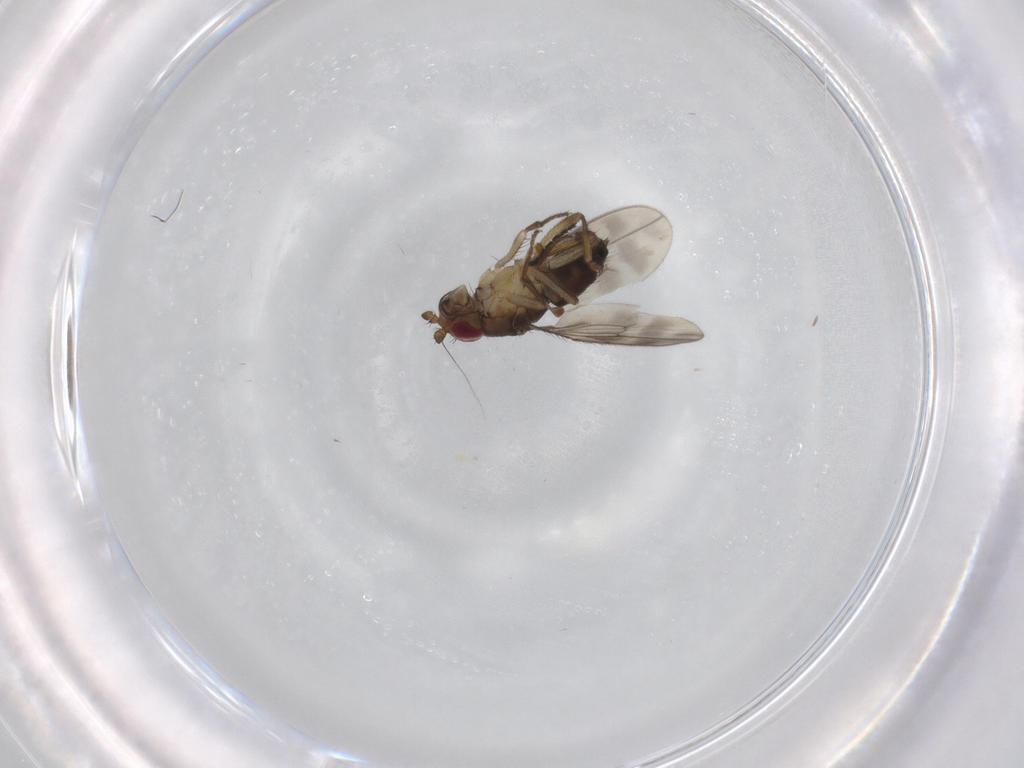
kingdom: Animalia
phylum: Arthropoda
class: Insecta
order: Diptera
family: Sphaeroceridae
